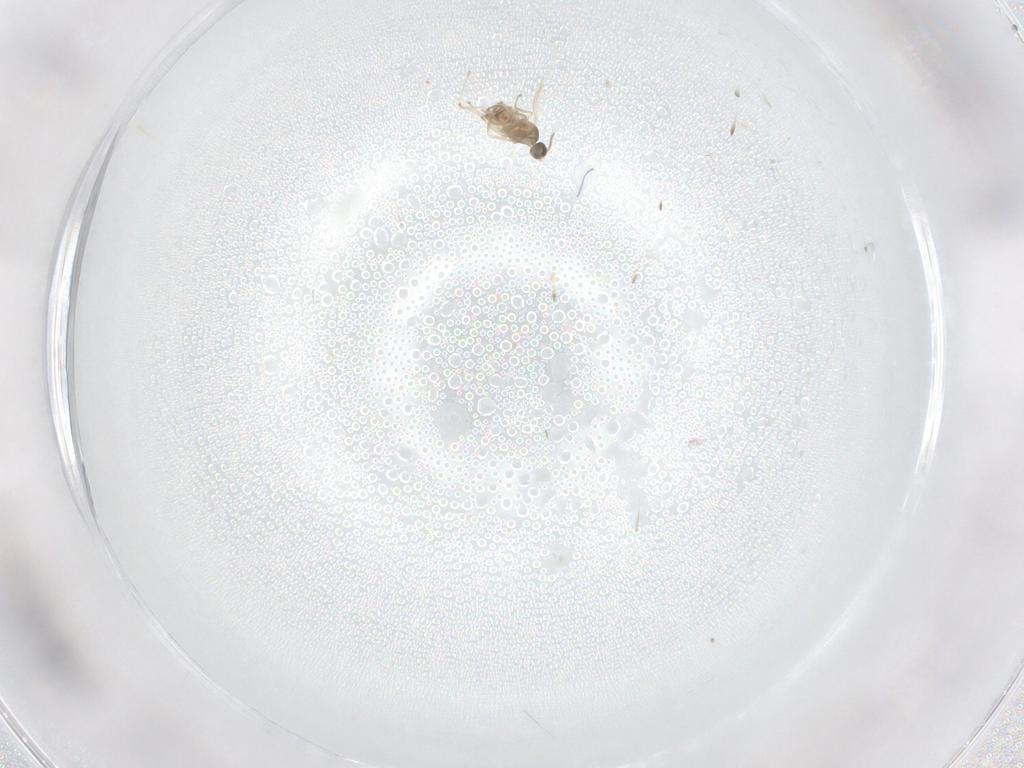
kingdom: Animalia
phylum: Arthropoda
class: Insecta
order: Diptera
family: Cecidomyiidae
